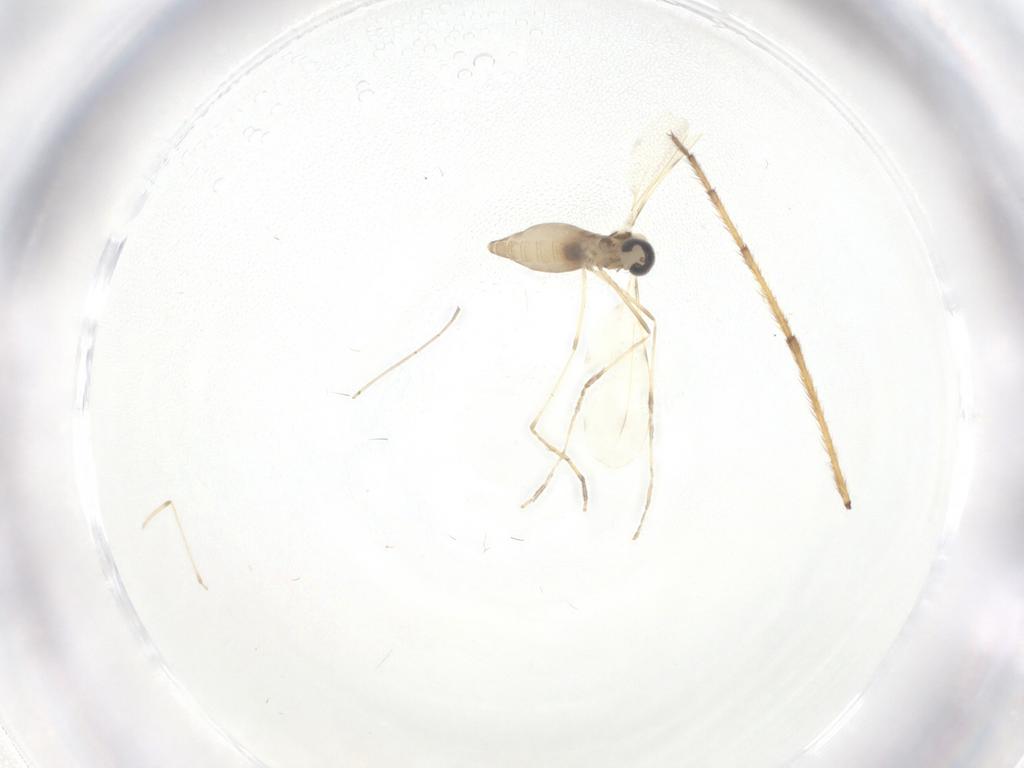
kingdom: Animalia
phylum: Arthropoda
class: Insecta
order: Diptera
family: Cecidomyiidae
